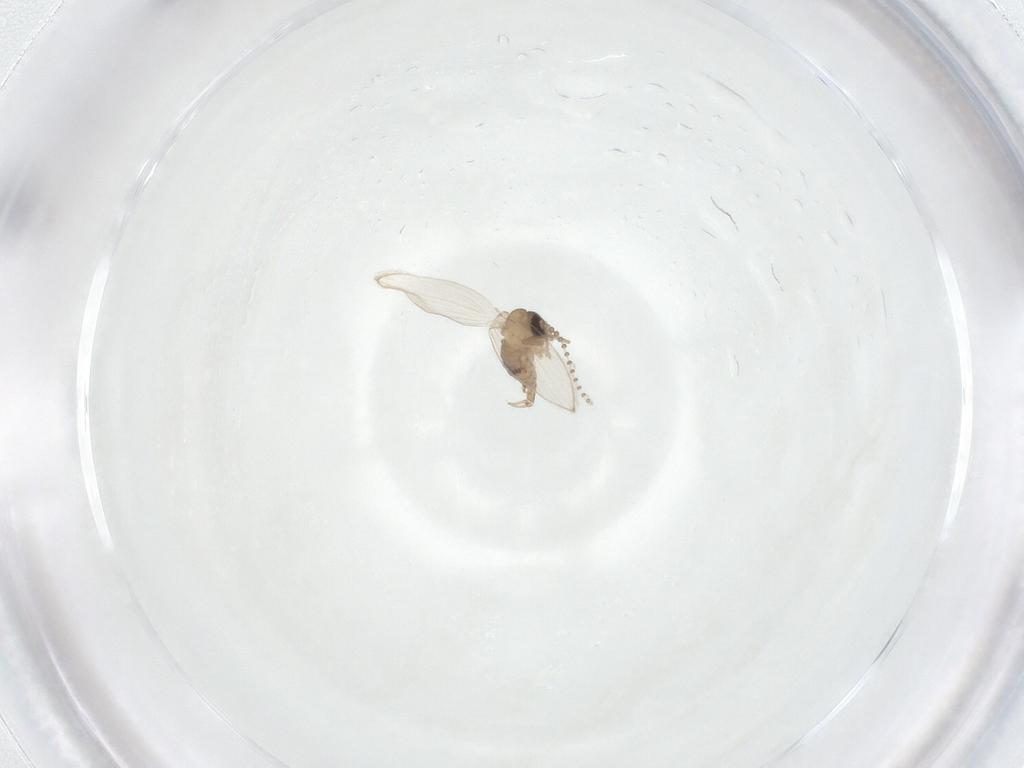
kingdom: Animalia
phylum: Arthropoda
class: Insecta
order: Diptera
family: Psychodidae
